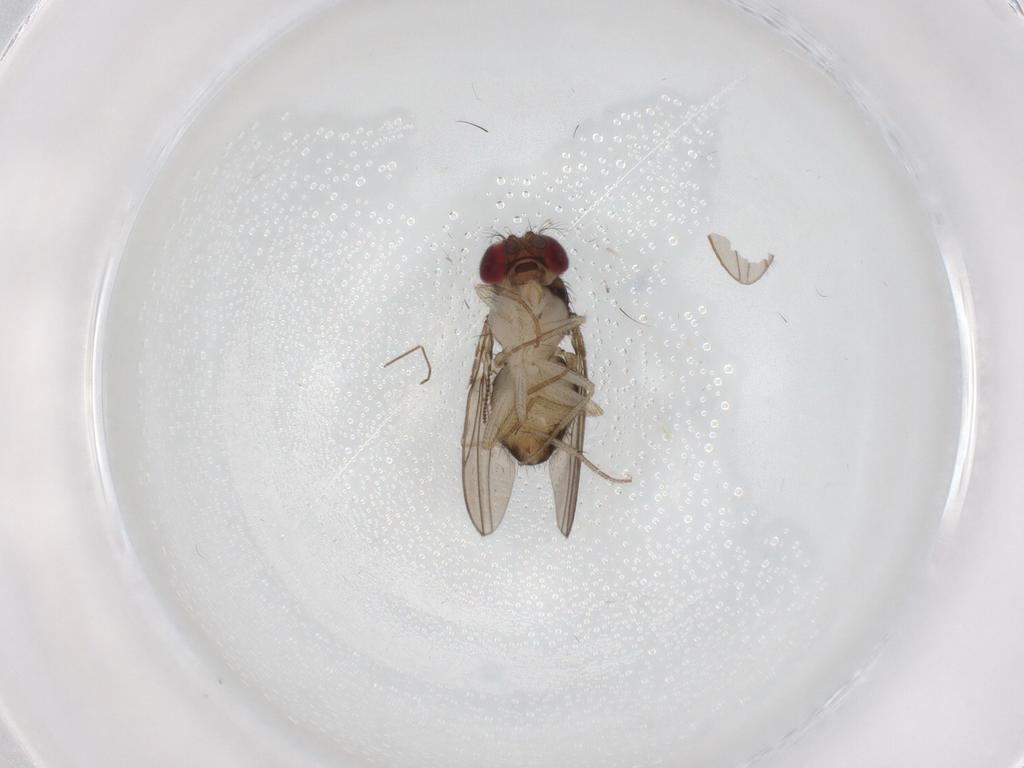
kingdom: Animalia
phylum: Arthropoda
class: Insecta
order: Diptera
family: Drosophilidae
